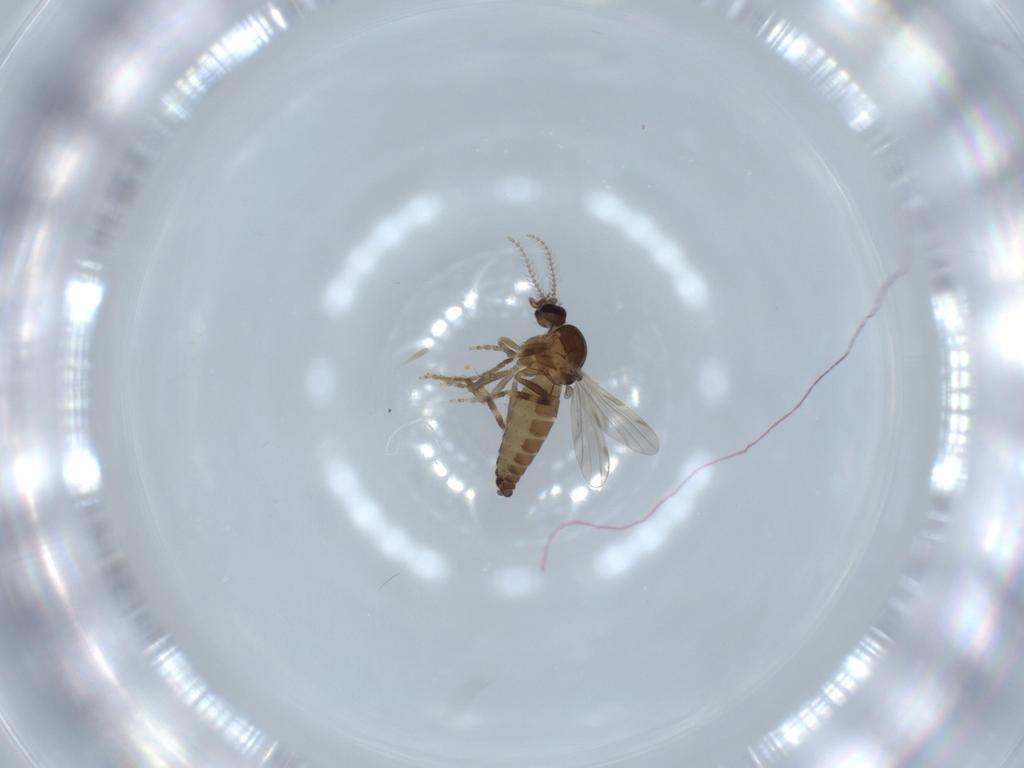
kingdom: Animalia
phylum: Arthropoda
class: Insecta
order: Diptera
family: Ceratopogonidae
